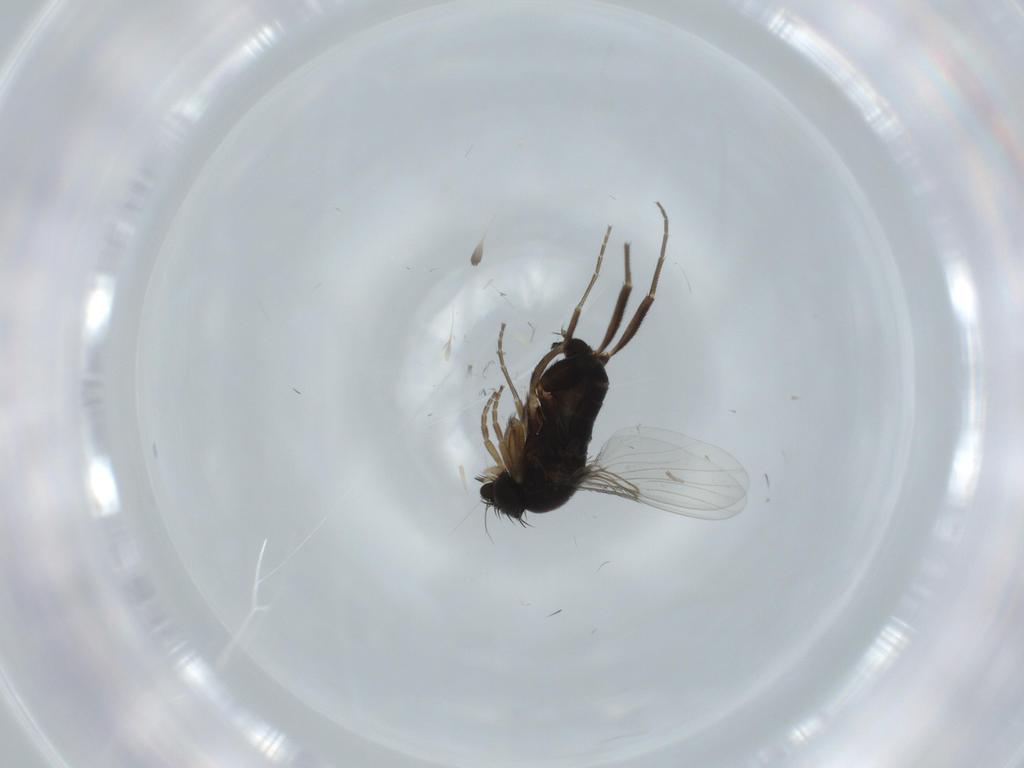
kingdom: Animalia
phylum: Arthropoda
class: Insecta
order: Diptera
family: Phoridae
